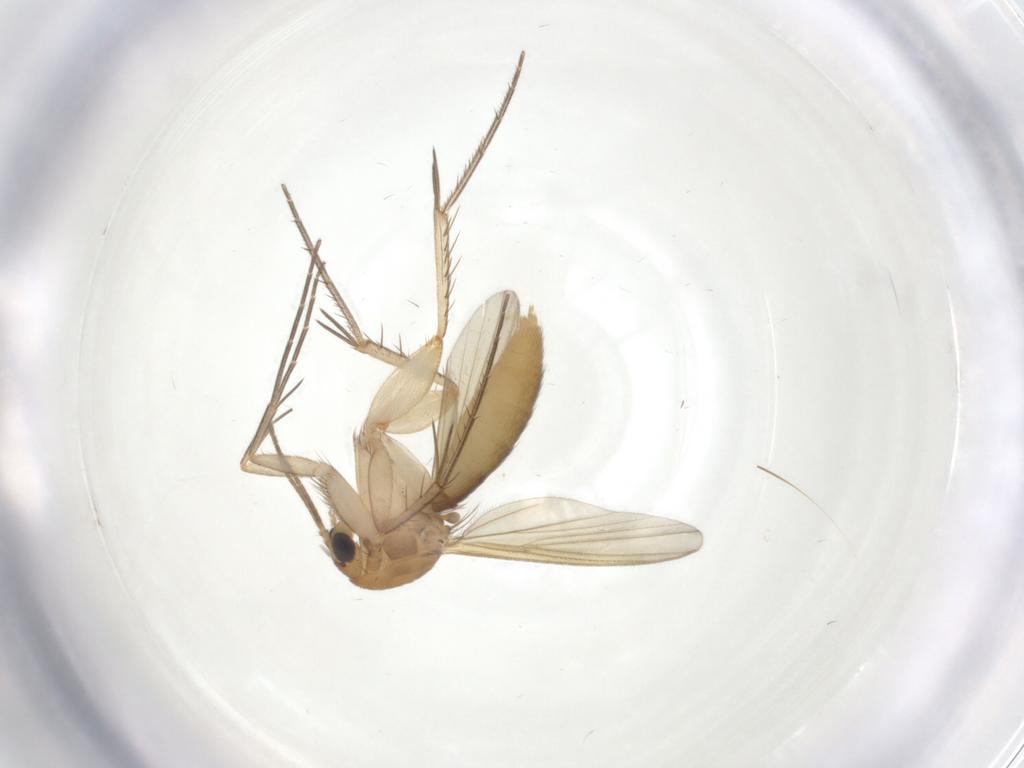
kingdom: Animalia
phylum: Arthropoda
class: Insecta
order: Diptera
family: Mycetophilidae
